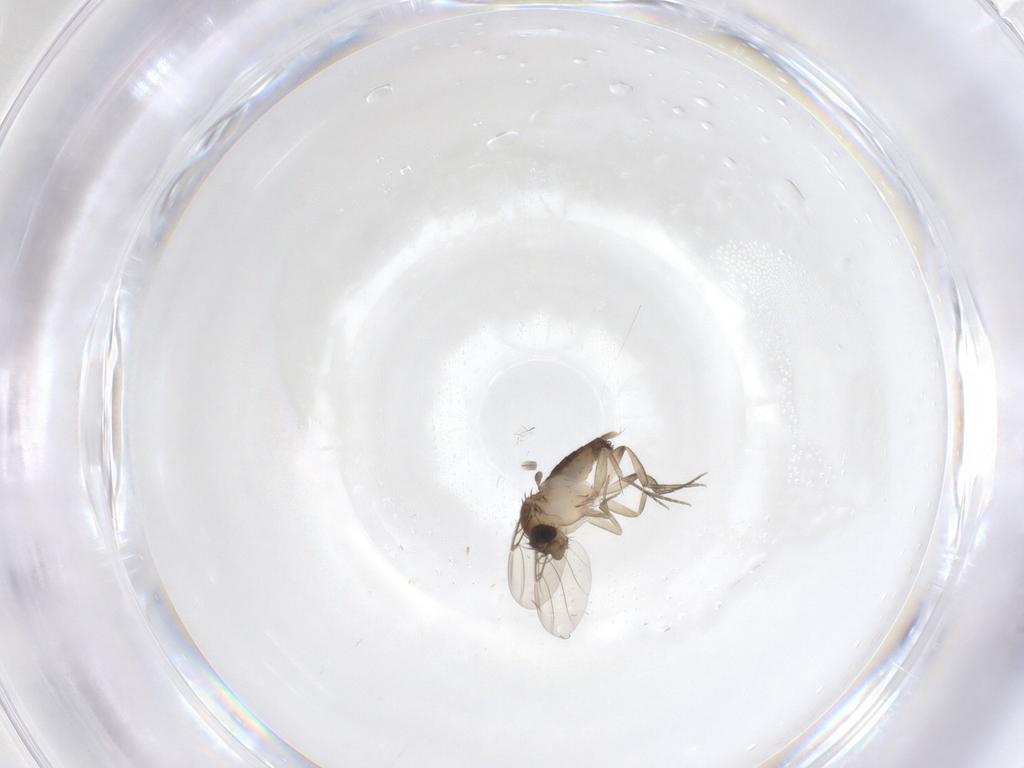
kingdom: Animalia
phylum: Arthropoda
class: Insecta
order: Diptera
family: Phoridae
